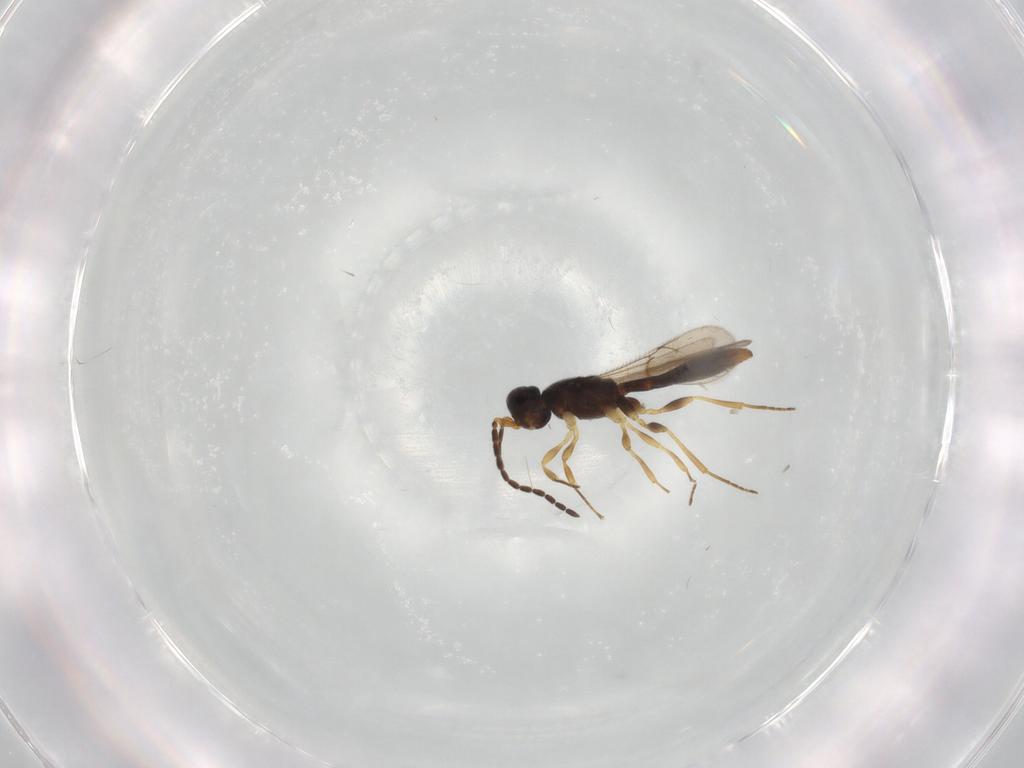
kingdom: Animalia
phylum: Arthropoda
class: Insecta
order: Hymenoptera
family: Scelionidae
